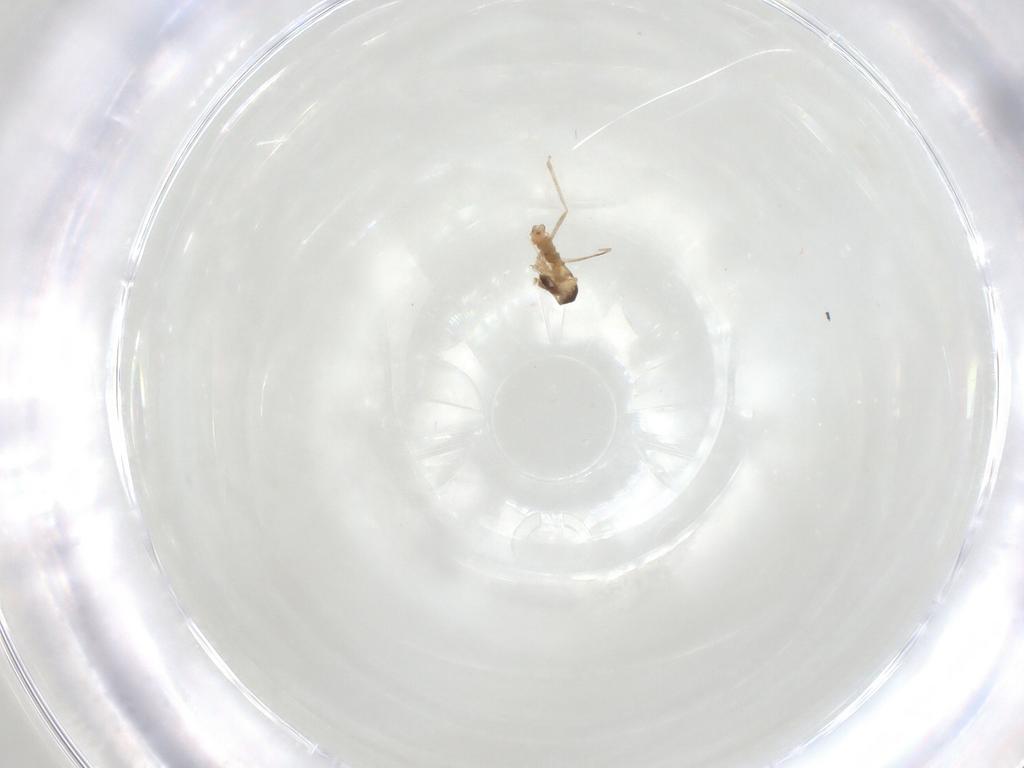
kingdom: Animalia
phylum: Arthropoda
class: Insecta
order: Diptera
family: Cecidomyiidae
